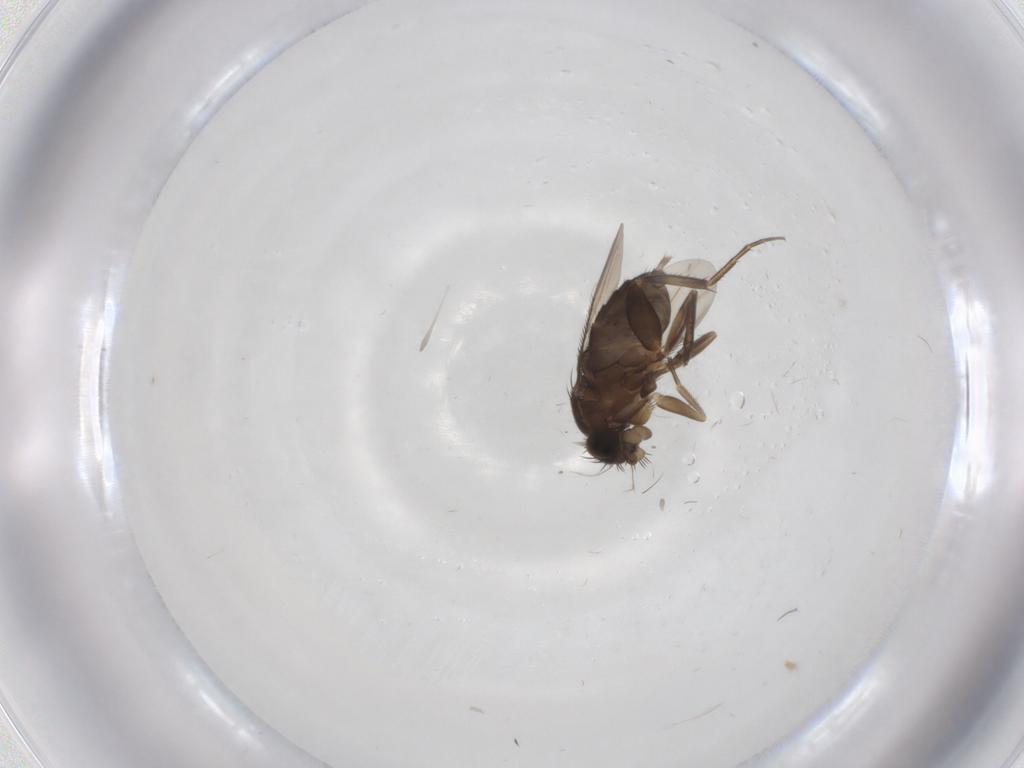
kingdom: Animalia
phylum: Arthropoda
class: Insecta
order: Diptera
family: Phoridae
